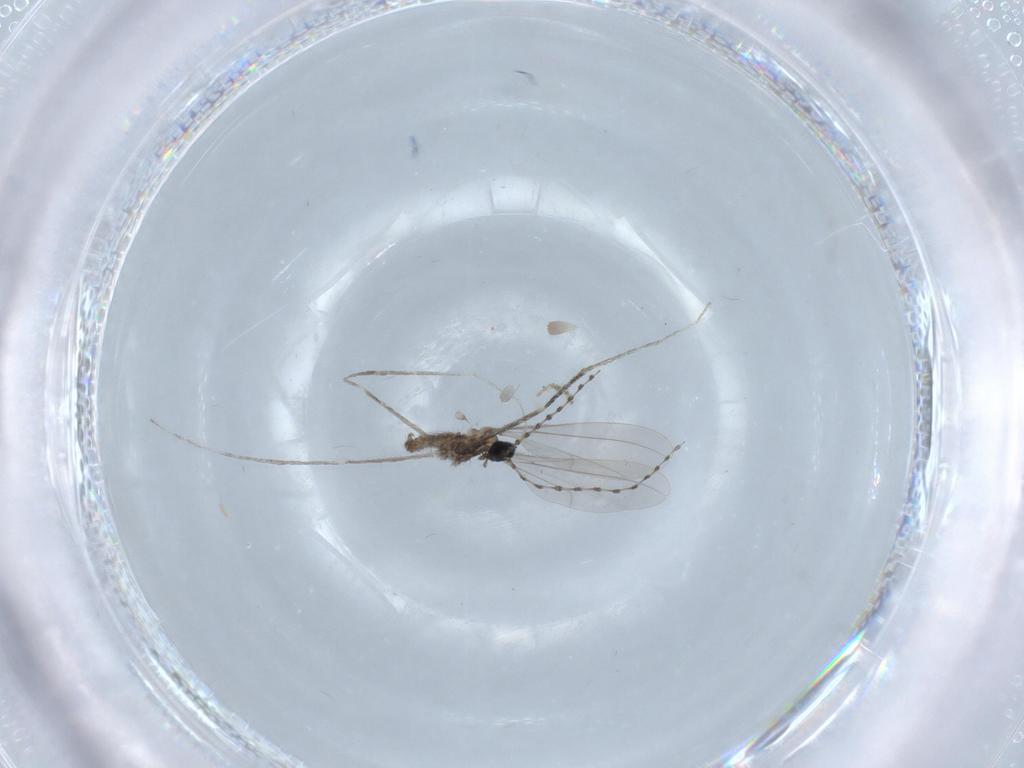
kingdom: Animalia
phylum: Arthropoda
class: Insecta
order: Diptera
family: Cecidomyiidae
